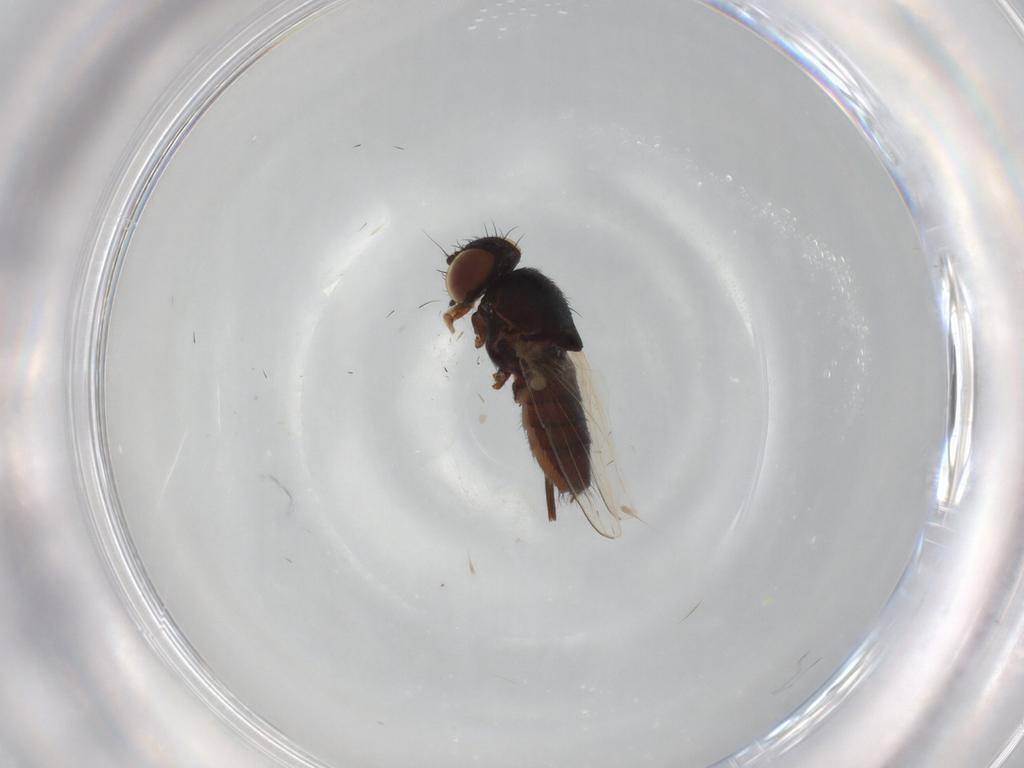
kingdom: Animalia
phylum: Arthropoda
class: Insecta
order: Diptera
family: Milichiidae
